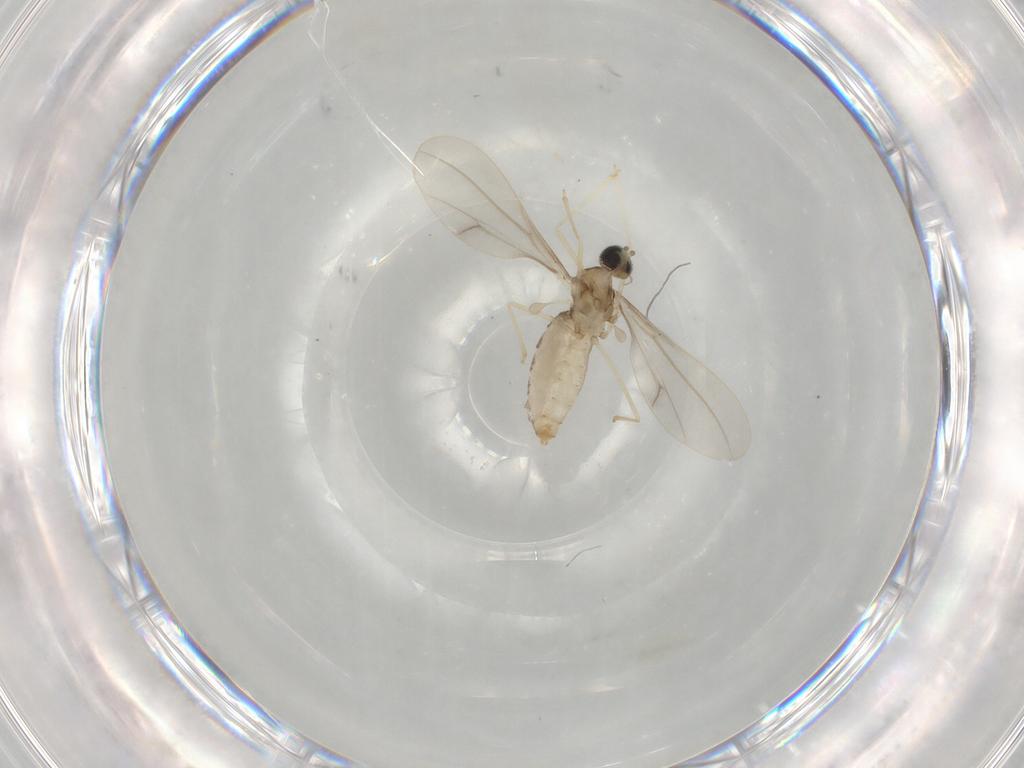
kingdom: Animalia
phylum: Arthropoda
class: Insecta
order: Diptera
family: Cecidomyiidae
